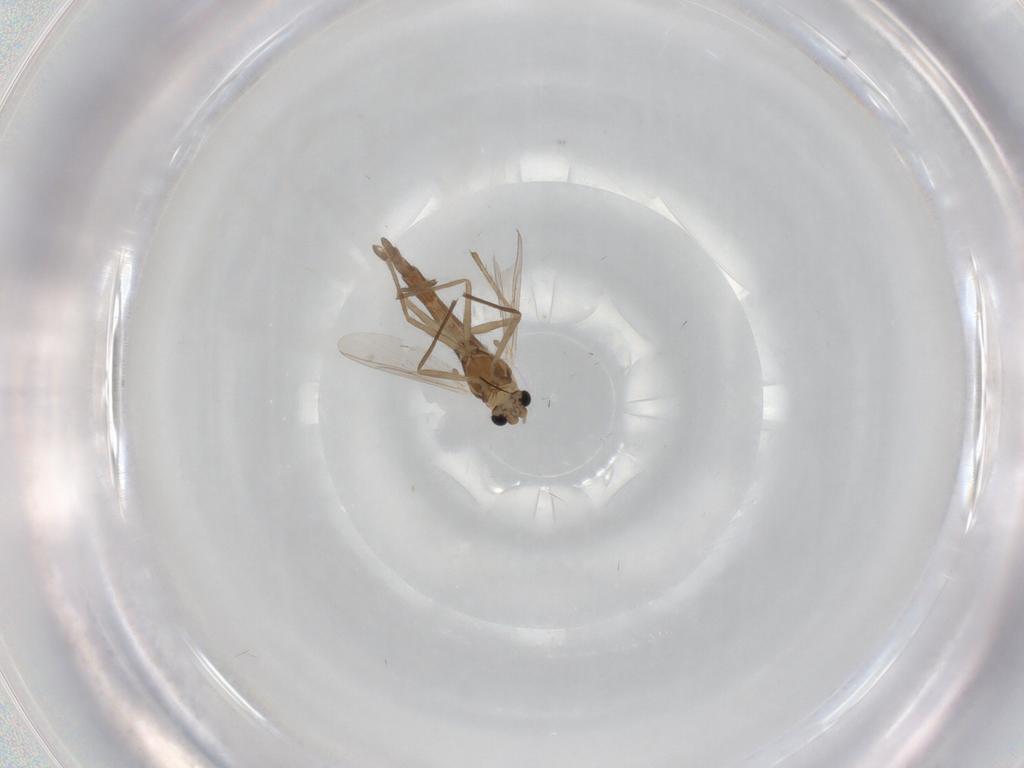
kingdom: Animalia
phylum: Arthropoda
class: Insecta
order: Diptera
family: Chironomidae
